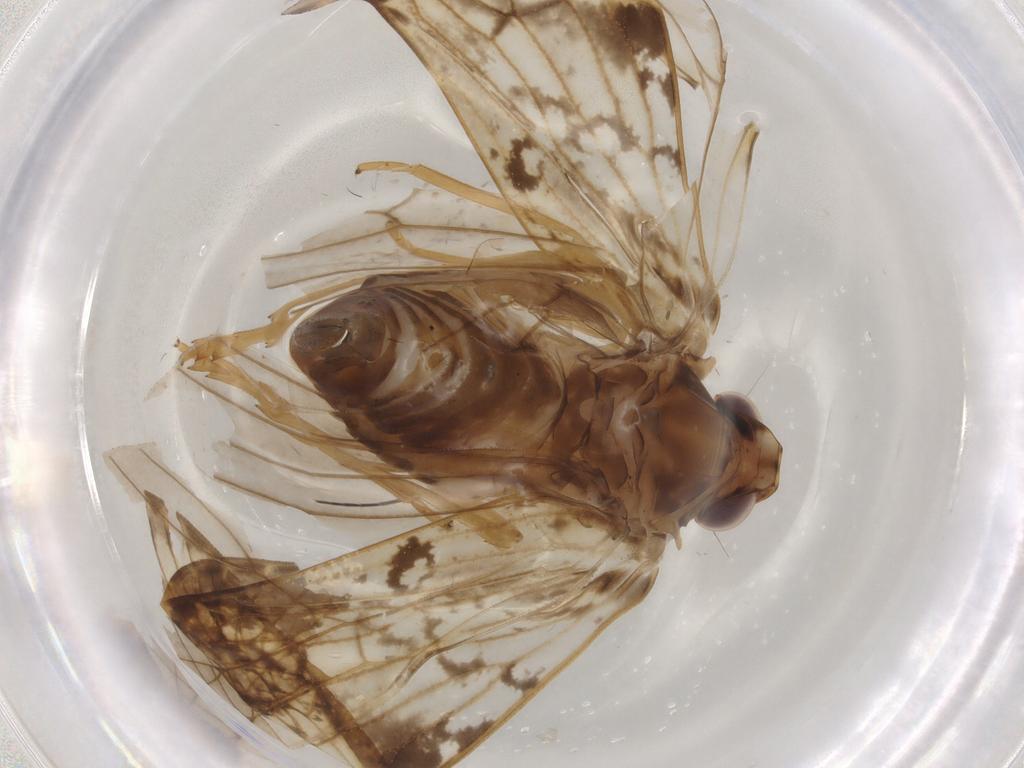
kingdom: Animalia
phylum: Arthropoda
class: Insecta
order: Hemiptera
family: Cixiidae
